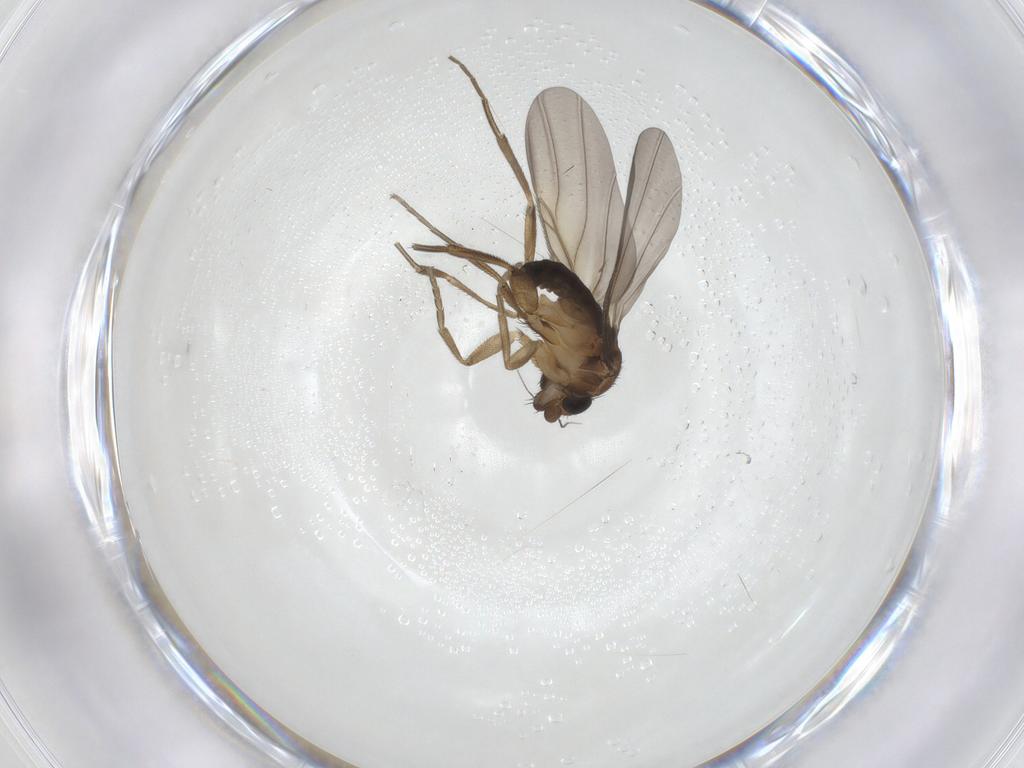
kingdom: Animalia
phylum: Arthropoda
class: Insecta
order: Diptera
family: Phoridae
